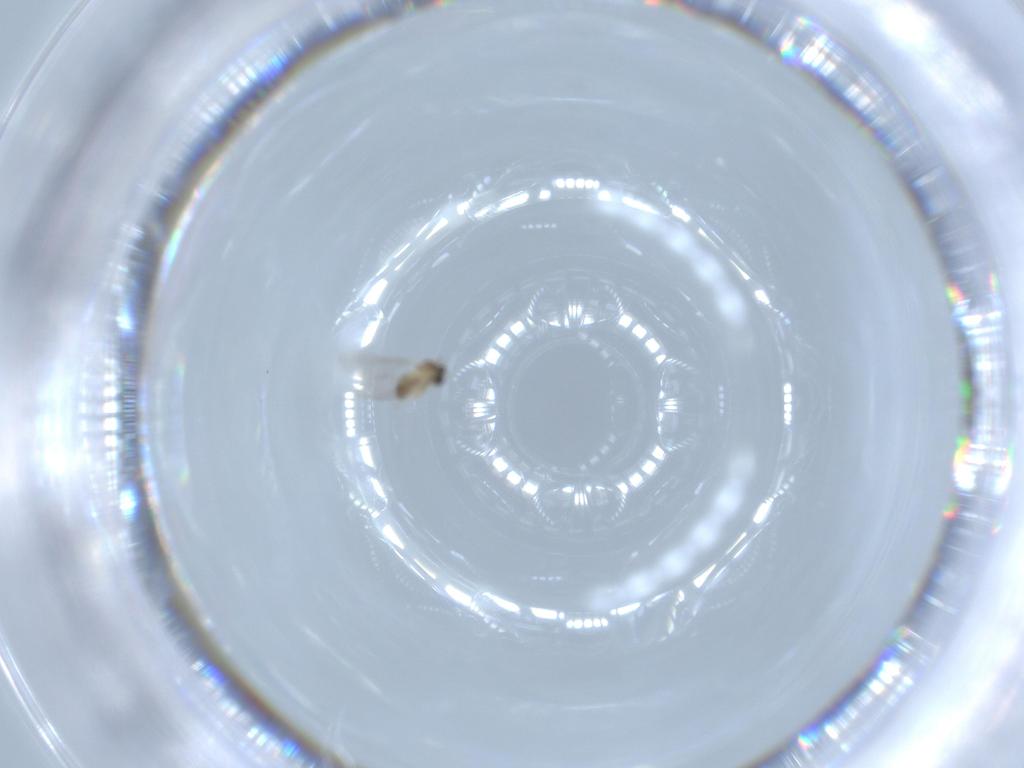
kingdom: Animalia
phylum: Arthropoda
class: Insecta
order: Diptera
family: Cecidomyiidae
